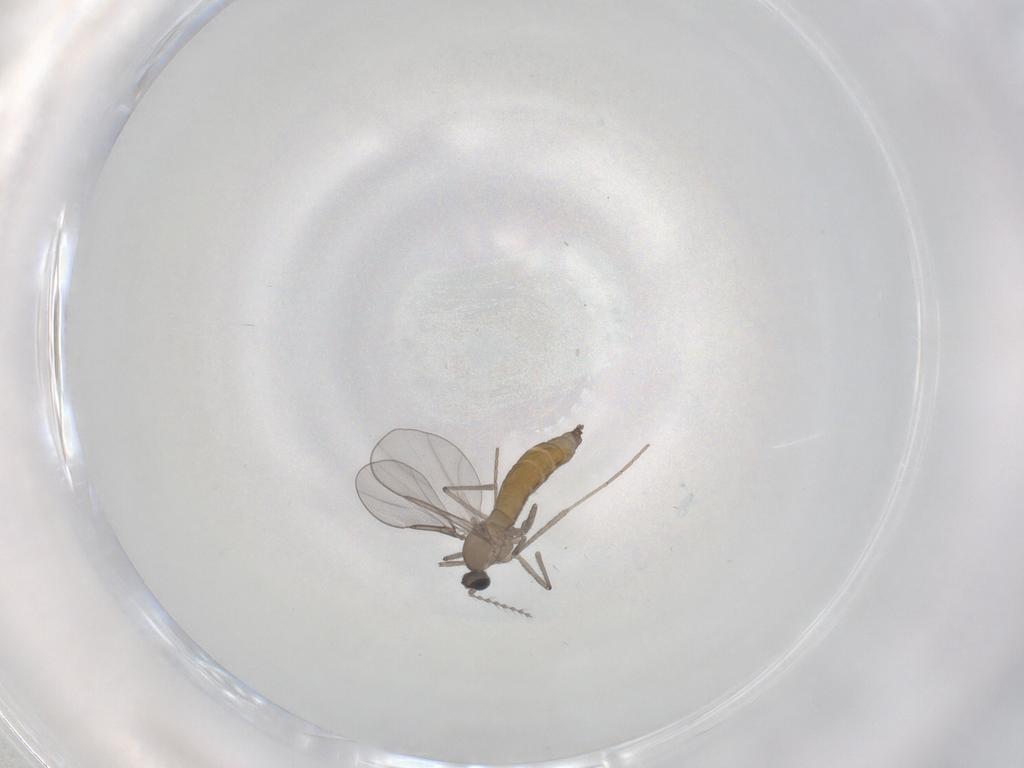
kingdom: Animalia
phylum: Arthropoda
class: Insecta
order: Diptera
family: Cecidomyiidae
